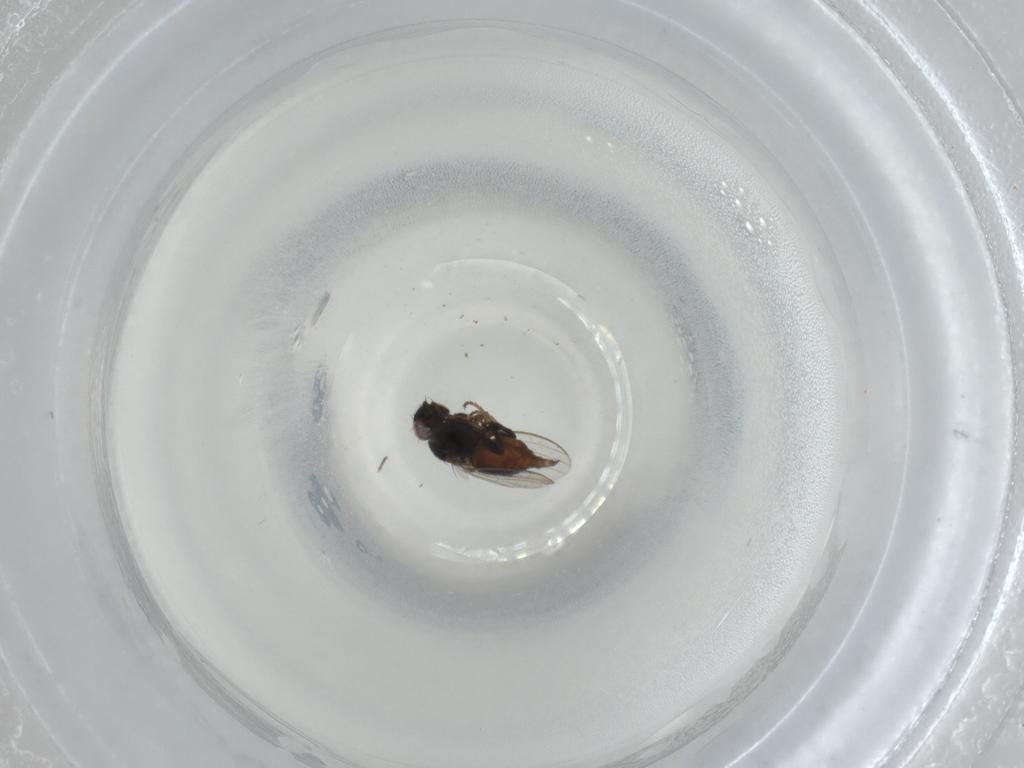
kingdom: Animalia
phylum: Arthropoda
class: Insecta
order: Diptera
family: Milichiidae
